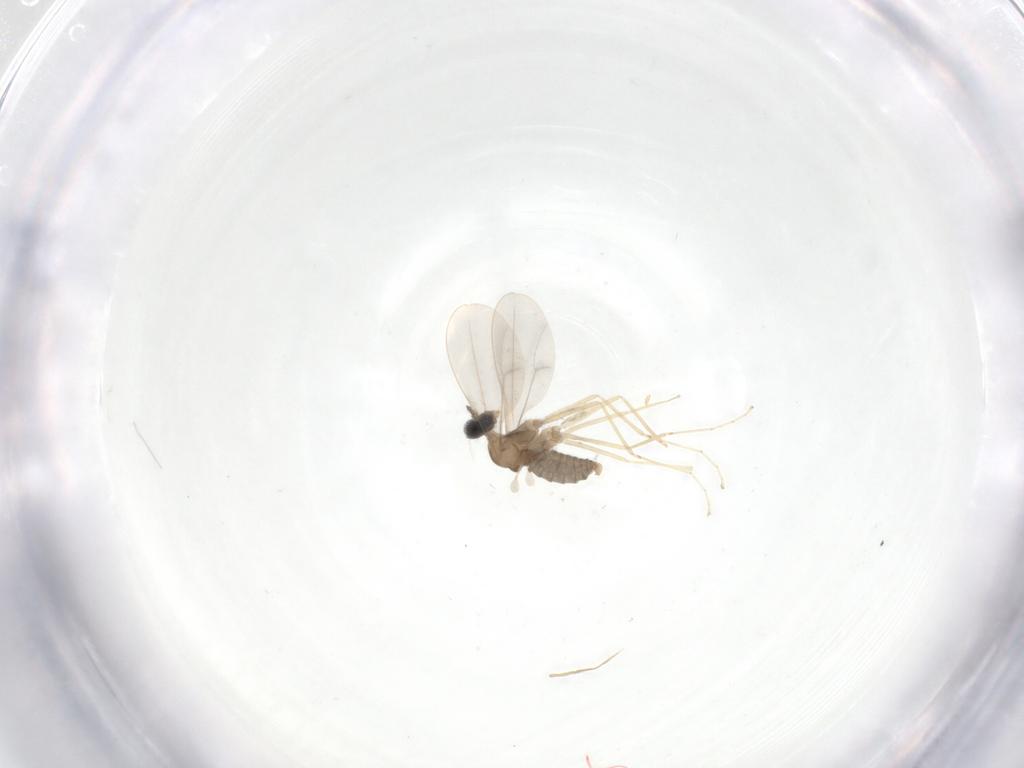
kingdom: Animalia
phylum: Arthropoda
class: Insecta
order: Diptera
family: Cecidomyiidae
